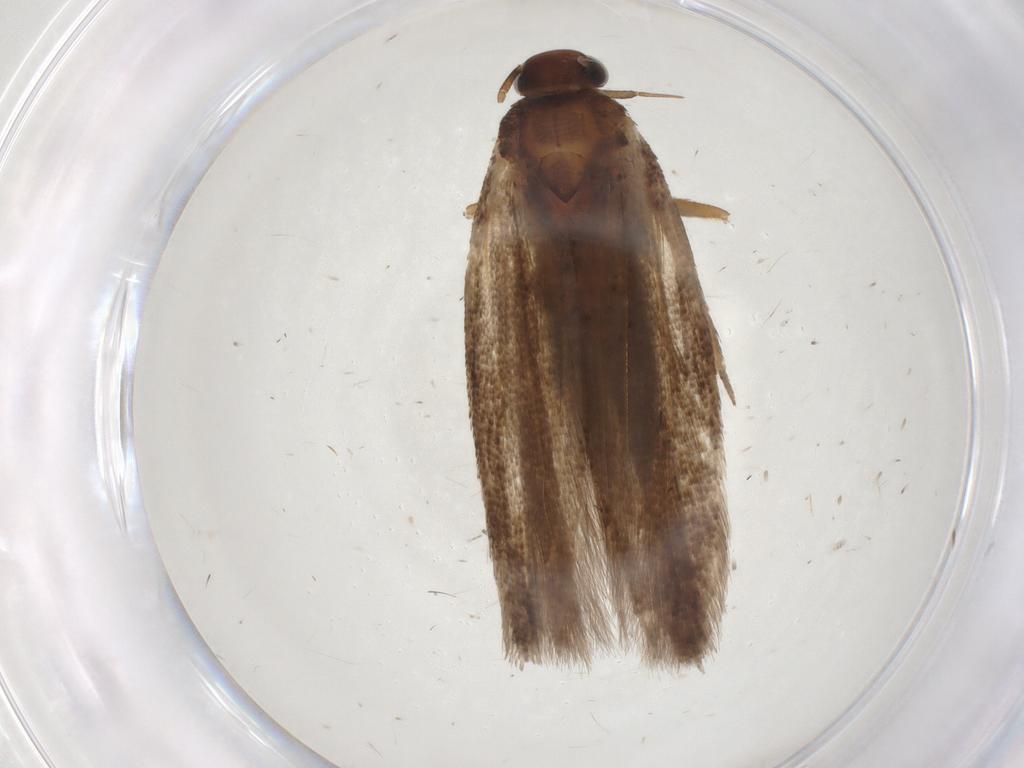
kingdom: Animalia
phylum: Arthropoda
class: Insecta
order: Lepidoptera
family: Gelechiidae
